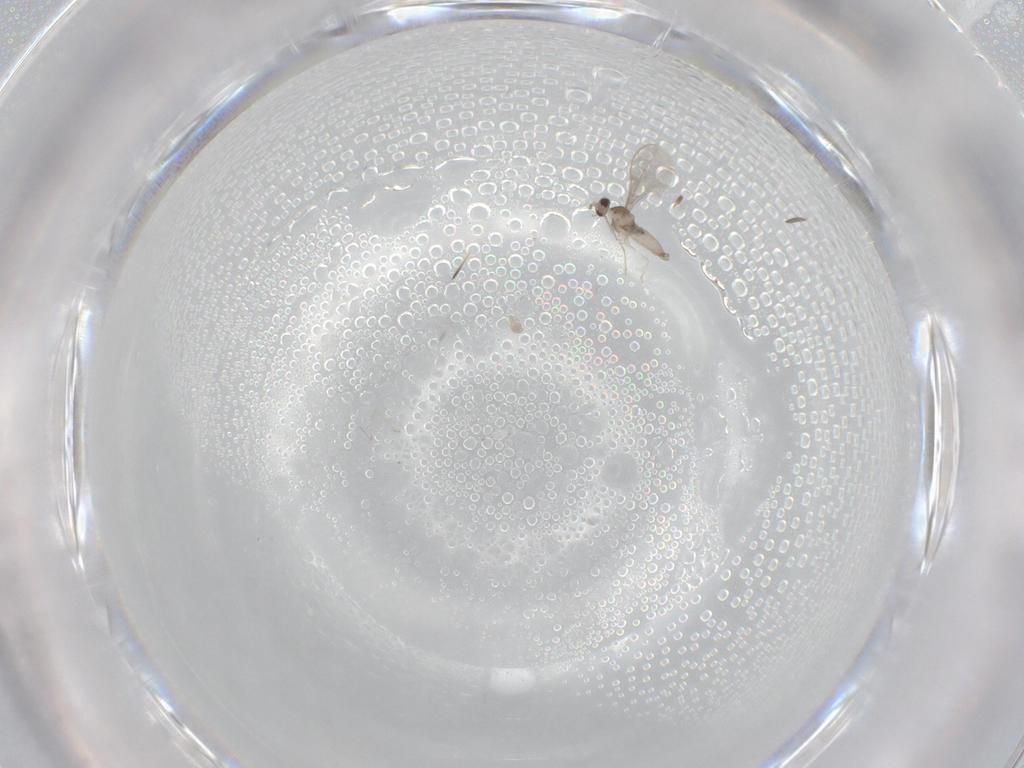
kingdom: Animalia
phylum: Arthropoda
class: Insecta
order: Diptera
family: Cecidomyiidae
